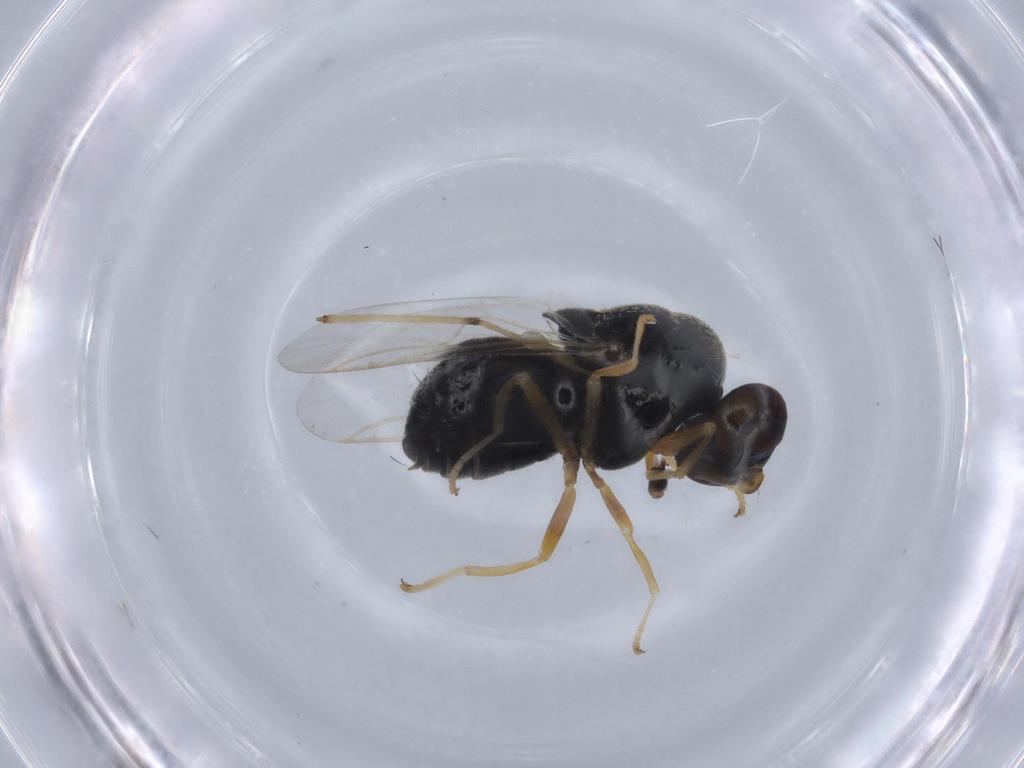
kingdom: Animalia
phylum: Arthropoda
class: Insecta
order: Diptera
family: Stratiomyidae
